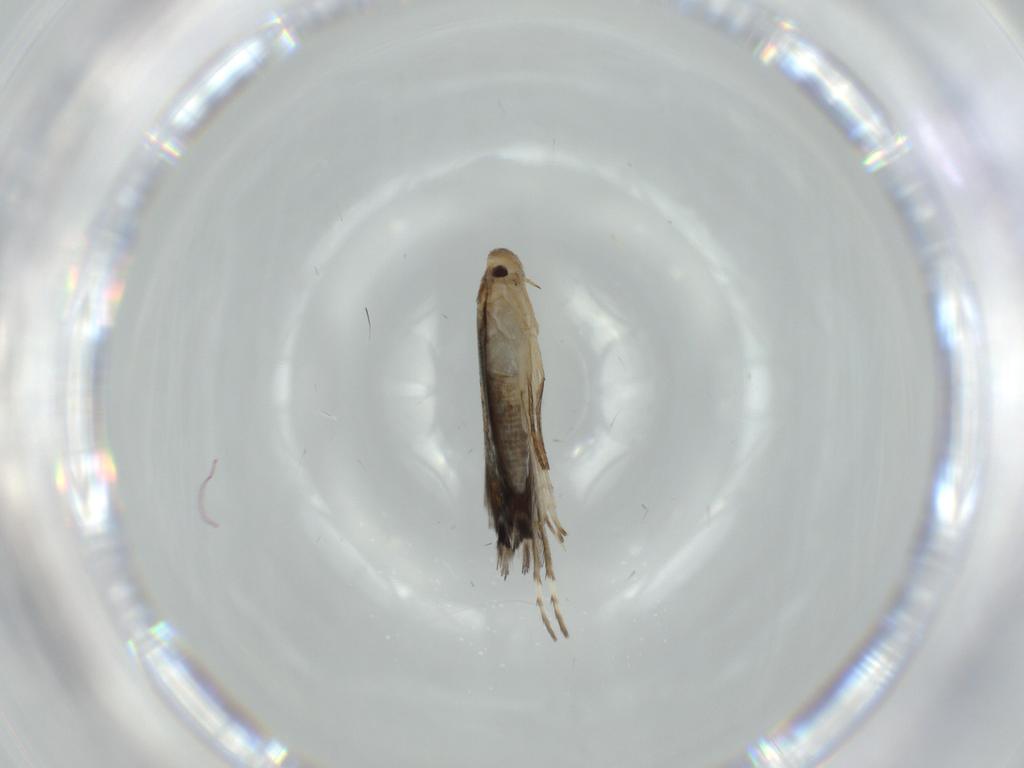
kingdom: Animalia
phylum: Arthropoda
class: Insecta
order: Lepidoptera
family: Gracillariidae
